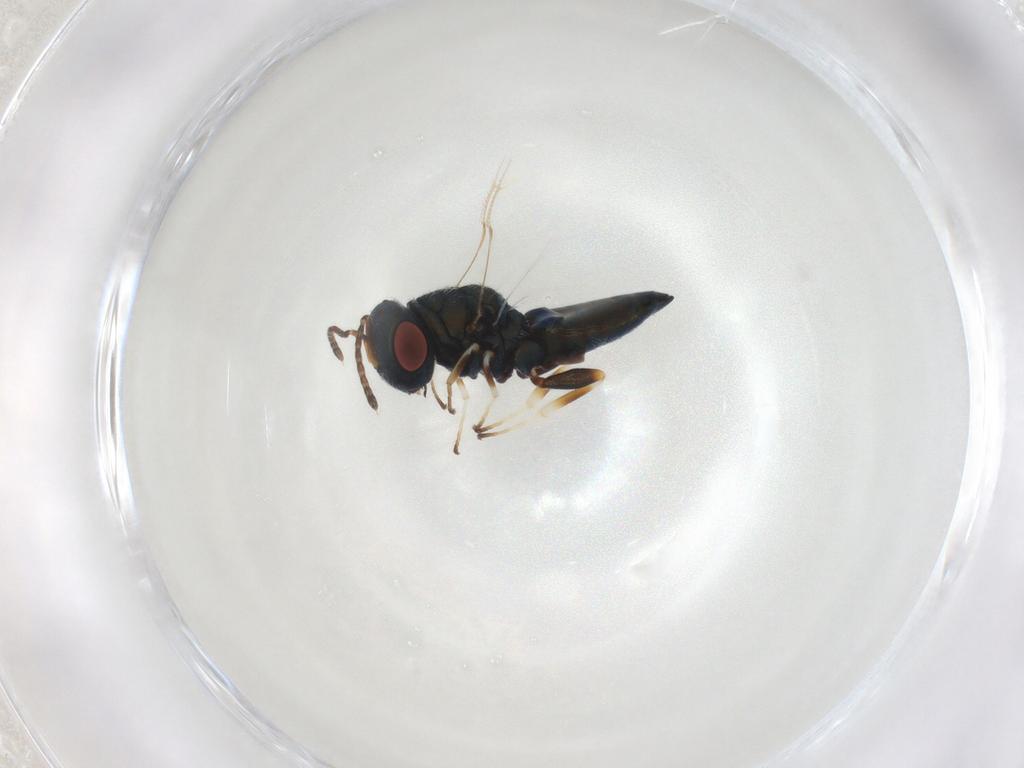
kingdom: Animalia
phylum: Arthropoda
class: Insecta
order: Hymenoptera
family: Pteromalidae
